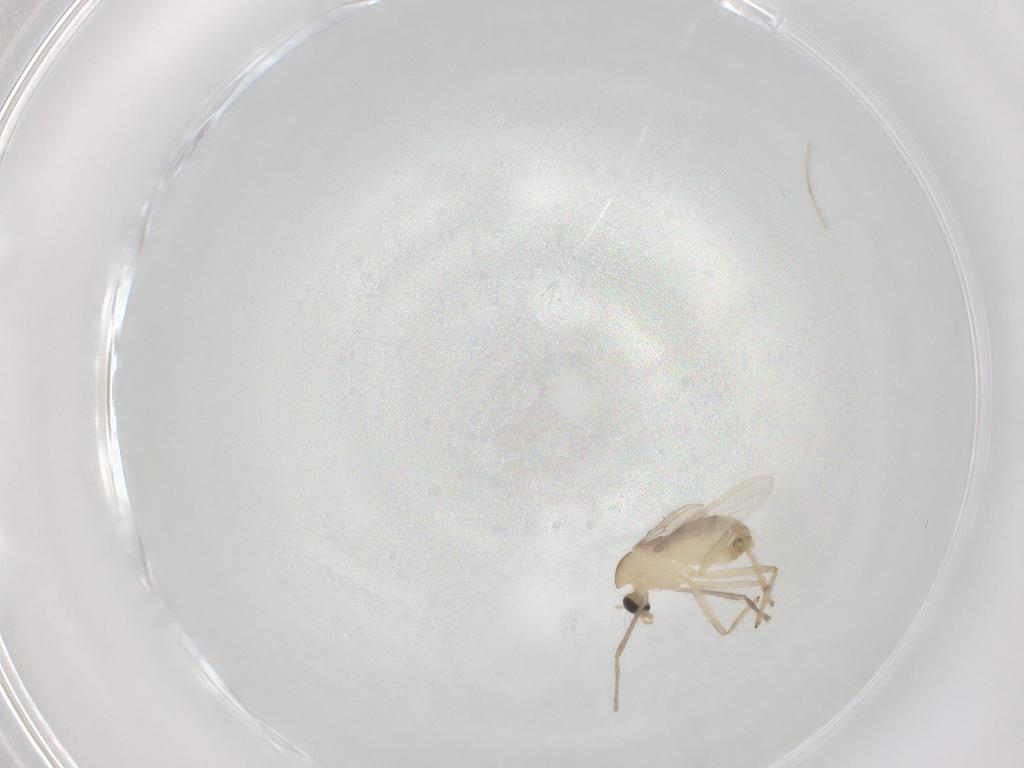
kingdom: Animalia
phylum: Arthropoda
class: Insecta
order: Diptera
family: Chironomidae
